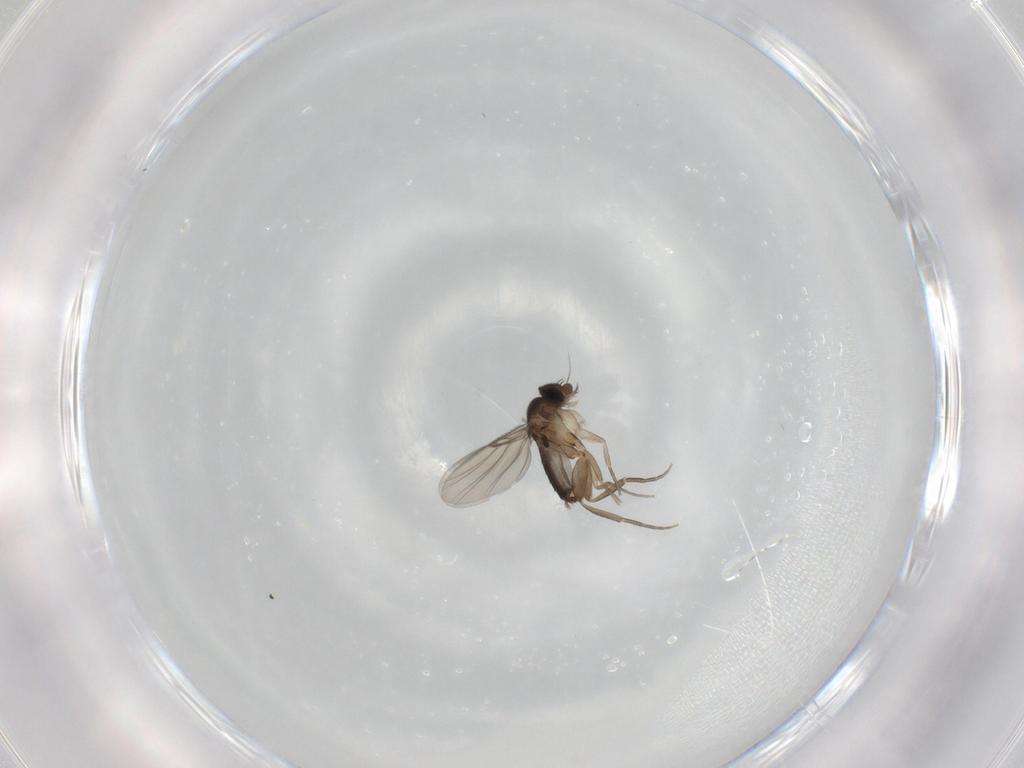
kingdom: Animalia
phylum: Arthropoda
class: Insecta
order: Diptera
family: Phoridae
